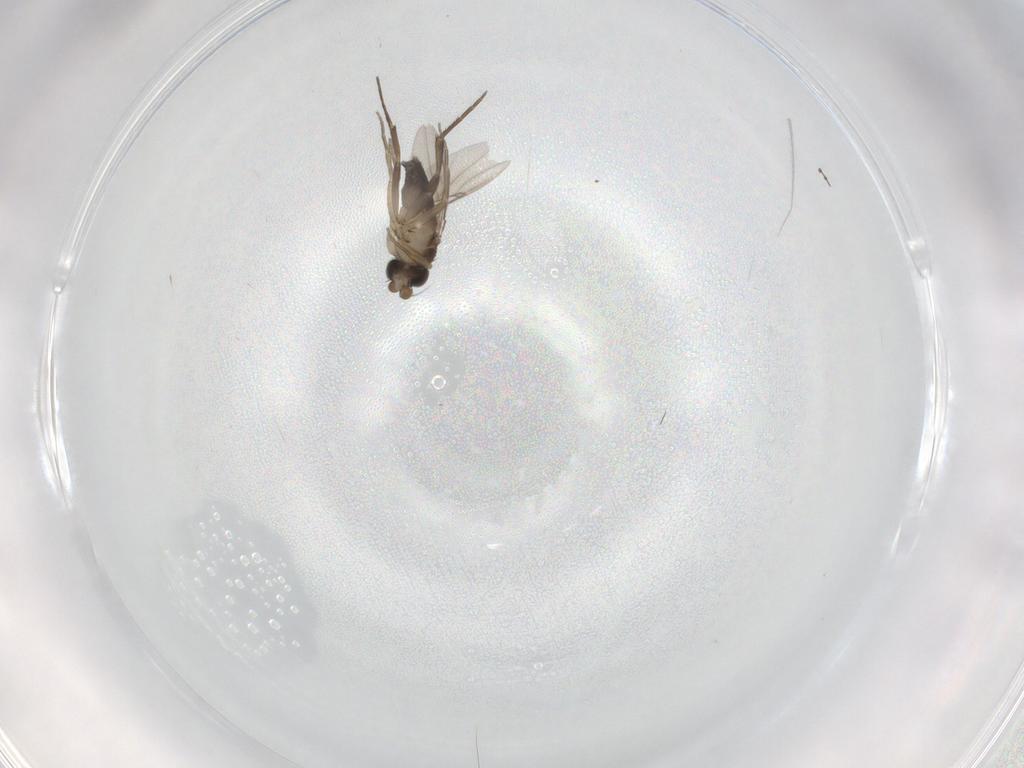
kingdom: Animalia
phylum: Arthropoda
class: Insecta
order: Diptera
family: Phoridae
